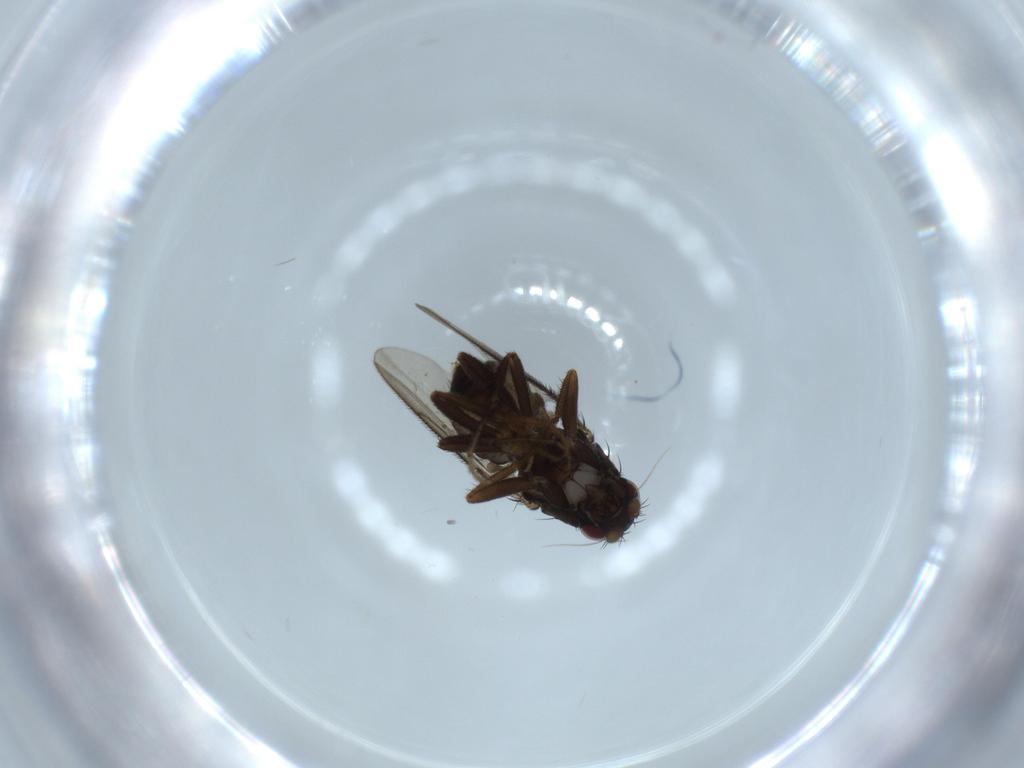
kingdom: Animalia
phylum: Arthropoda
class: Insecta
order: Diptera
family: Sphaeroceridae
